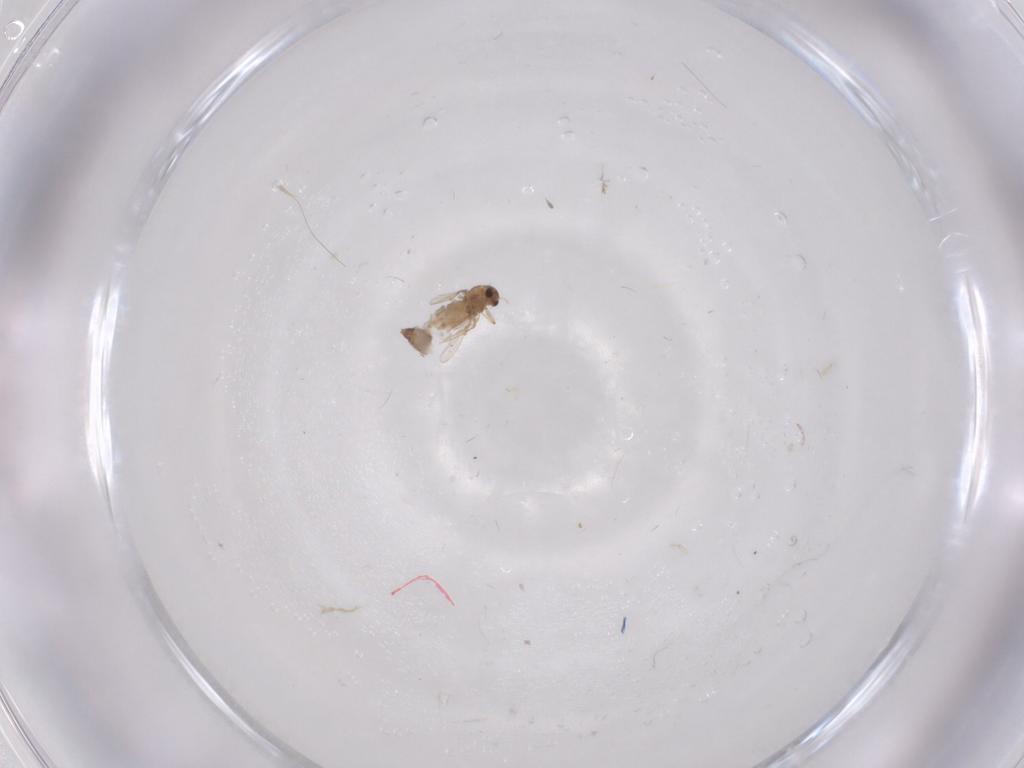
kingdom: Animalia
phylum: Arthropoda
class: Insecta
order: Diptera
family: Chironomidae
